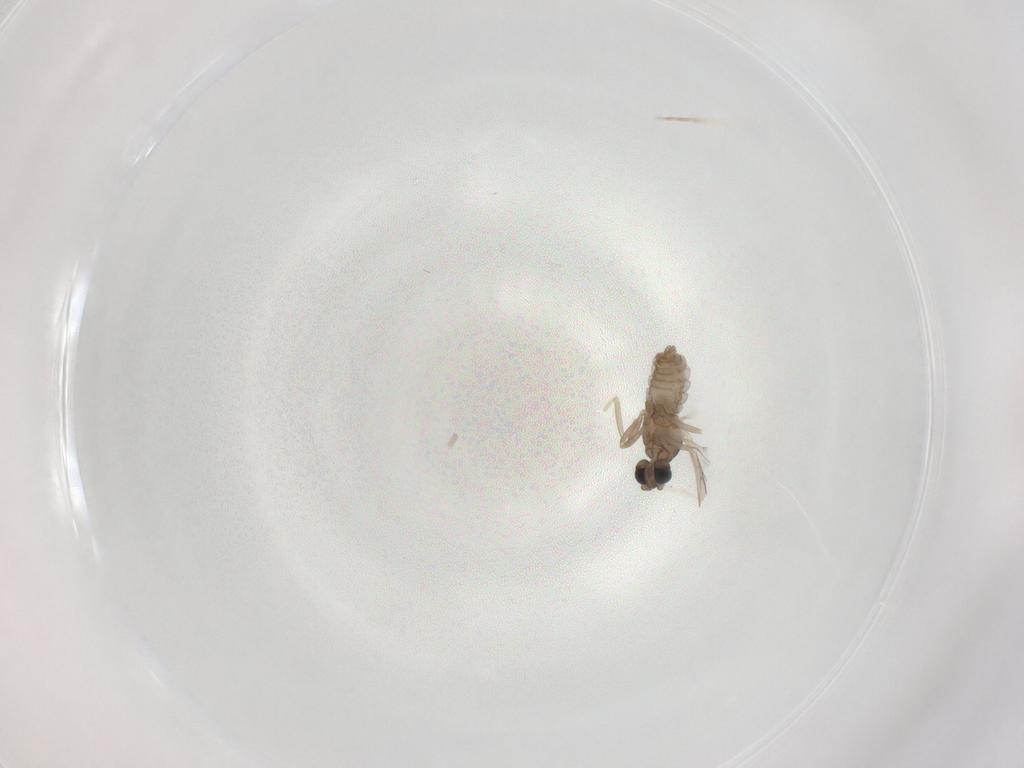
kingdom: Animalia
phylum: Arthropoda
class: Insecta
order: Diptera
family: Cecidomyiidae
